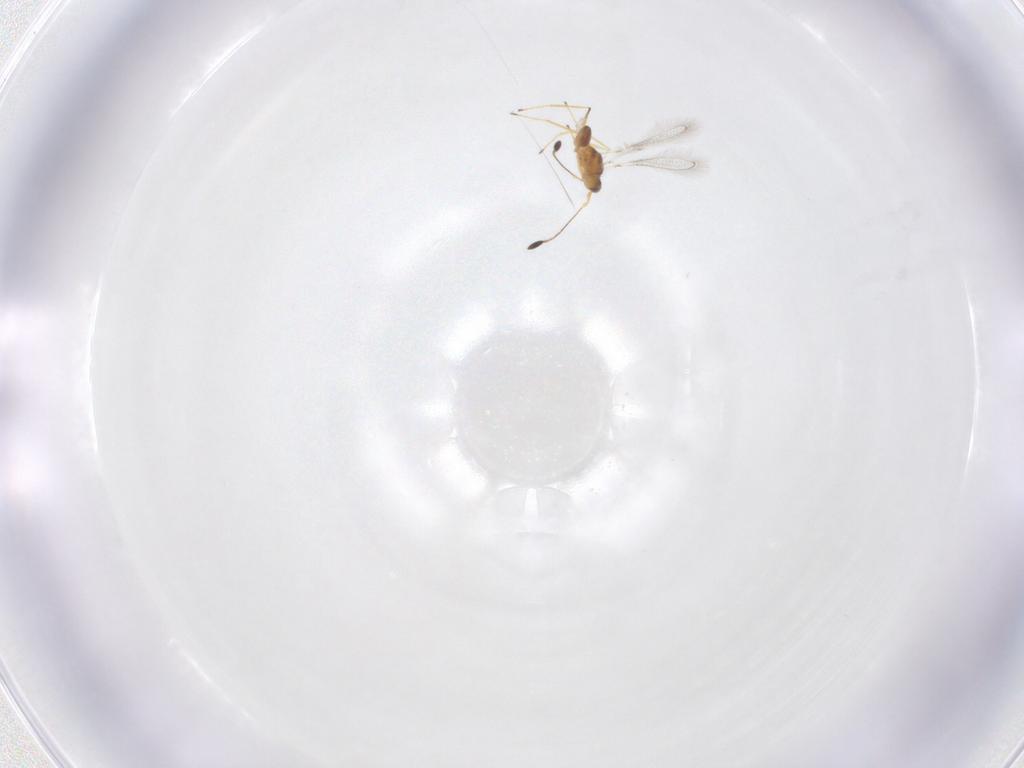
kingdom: Animalia
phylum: Arthropoda
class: Insecta
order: Hymenoptera
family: Mymaridae
